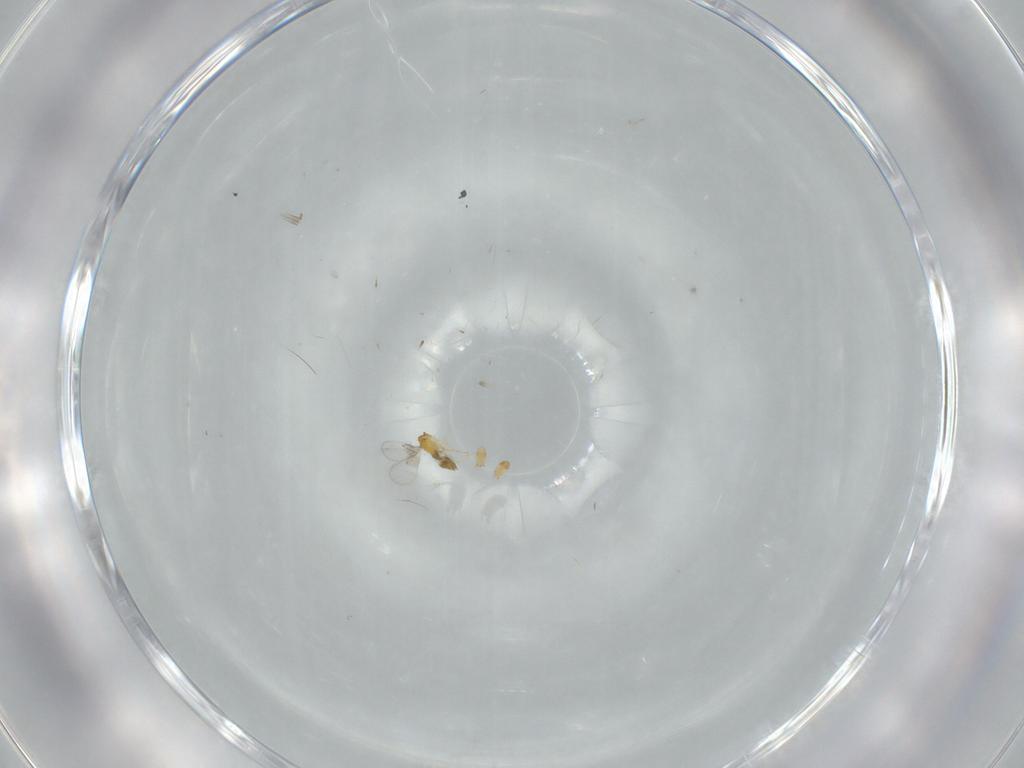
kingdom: Animalia
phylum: Arthropoda
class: Insecta
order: Hymenoptera
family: Trichogrammatidae
